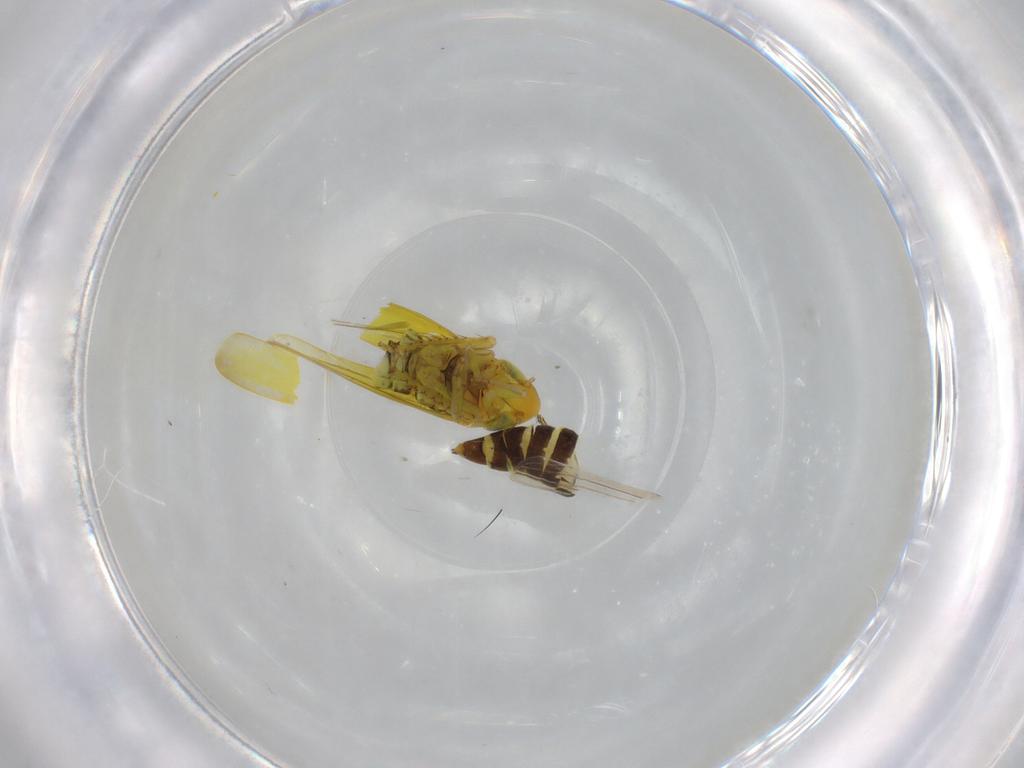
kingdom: Animalia
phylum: Arthropoda
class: Insecta
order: Hemiptera
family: Cicadellidae
